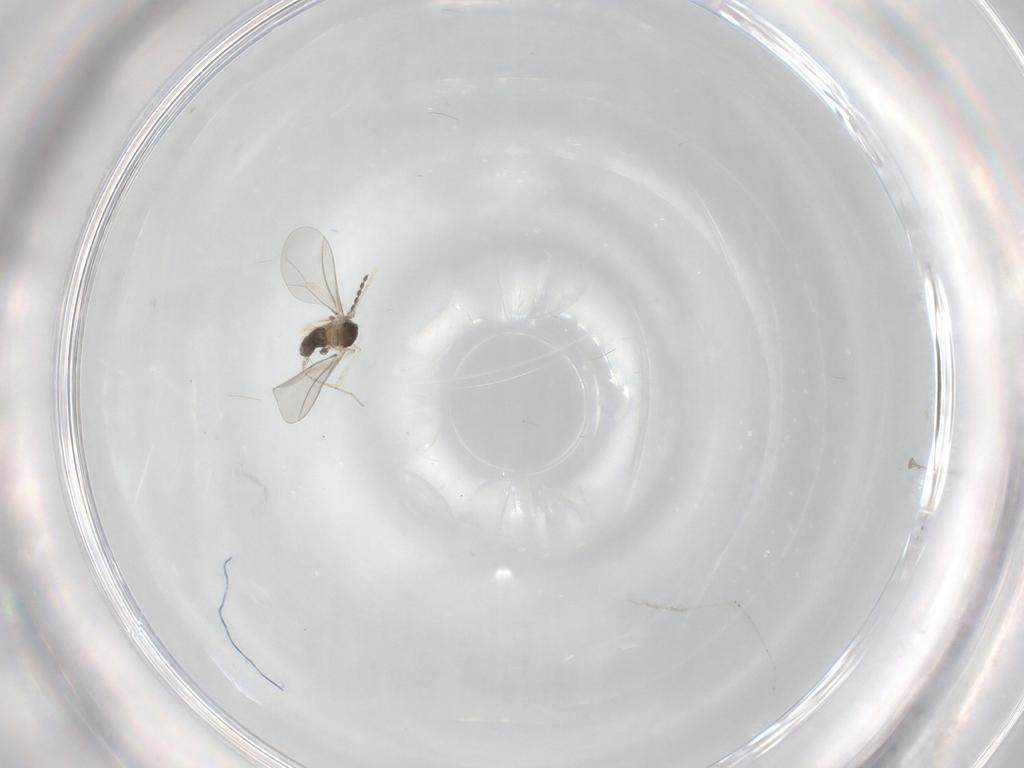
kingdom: Animalia
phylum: Arthropoda
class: Insecta
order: Diptera
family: Cecidomyiidae
